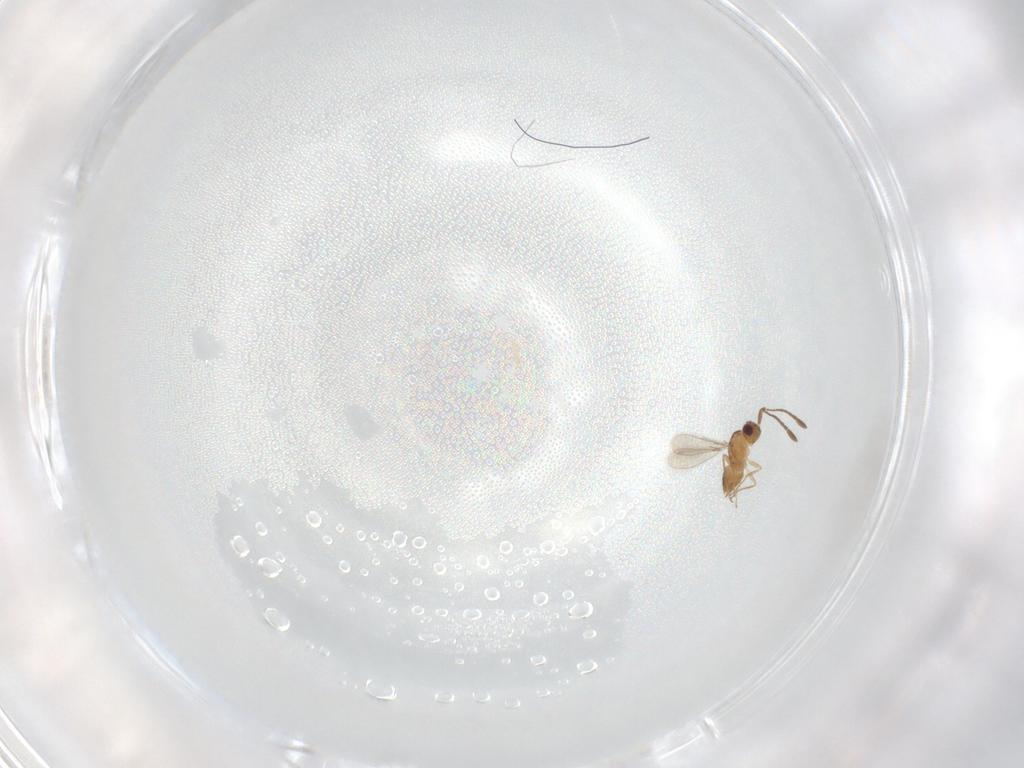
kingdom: Animalia
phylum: Arthropoda
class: Insecta
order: Hymenoptera
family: Mymaridae
